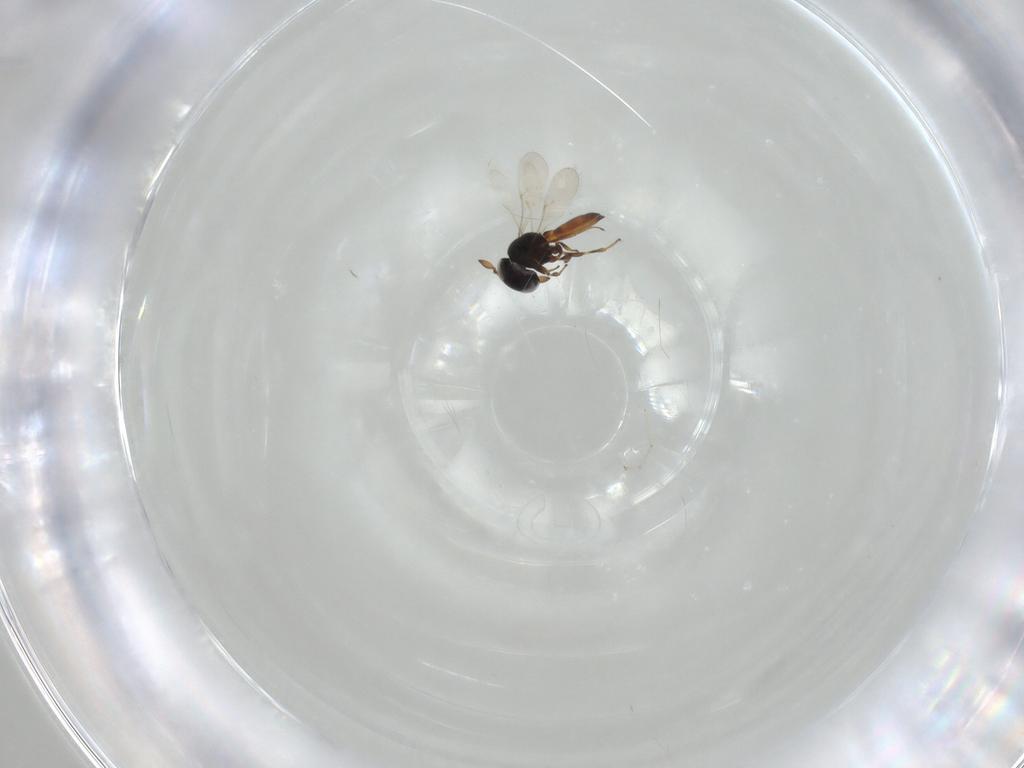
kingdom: Animalia
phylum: Arthropoda
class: Insecta
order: Hymenoptera
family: Scelionidae
